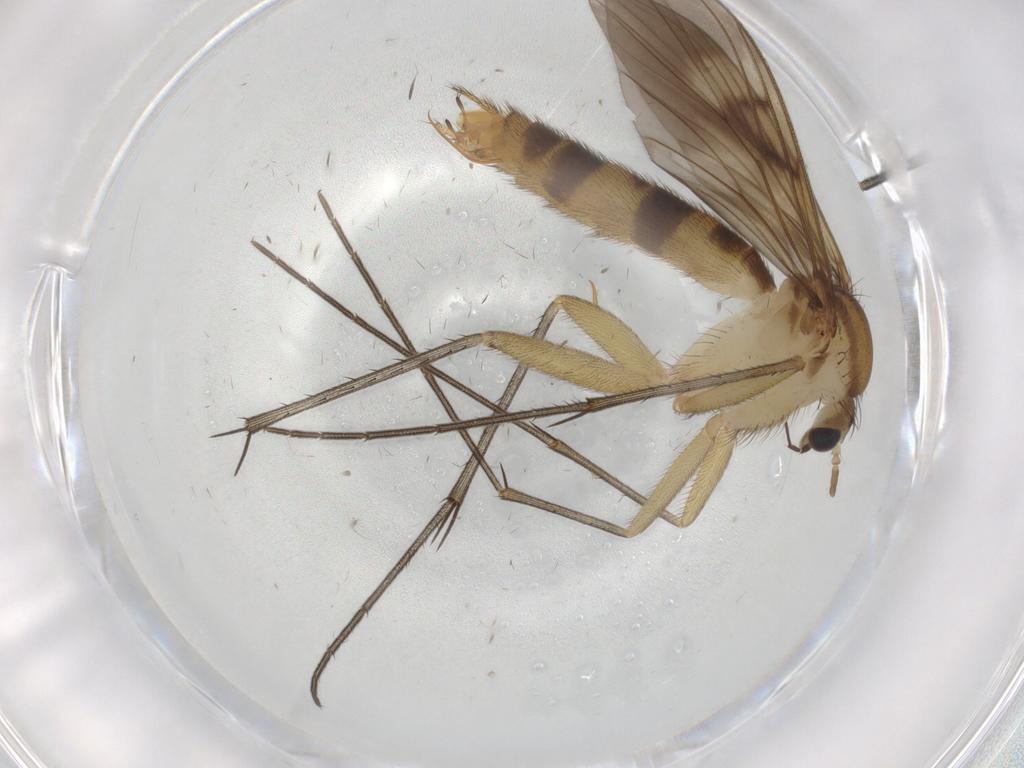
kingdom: Animalia
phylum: Arthropoda
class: Insecta
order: Diptera
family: Mycetophilidae
